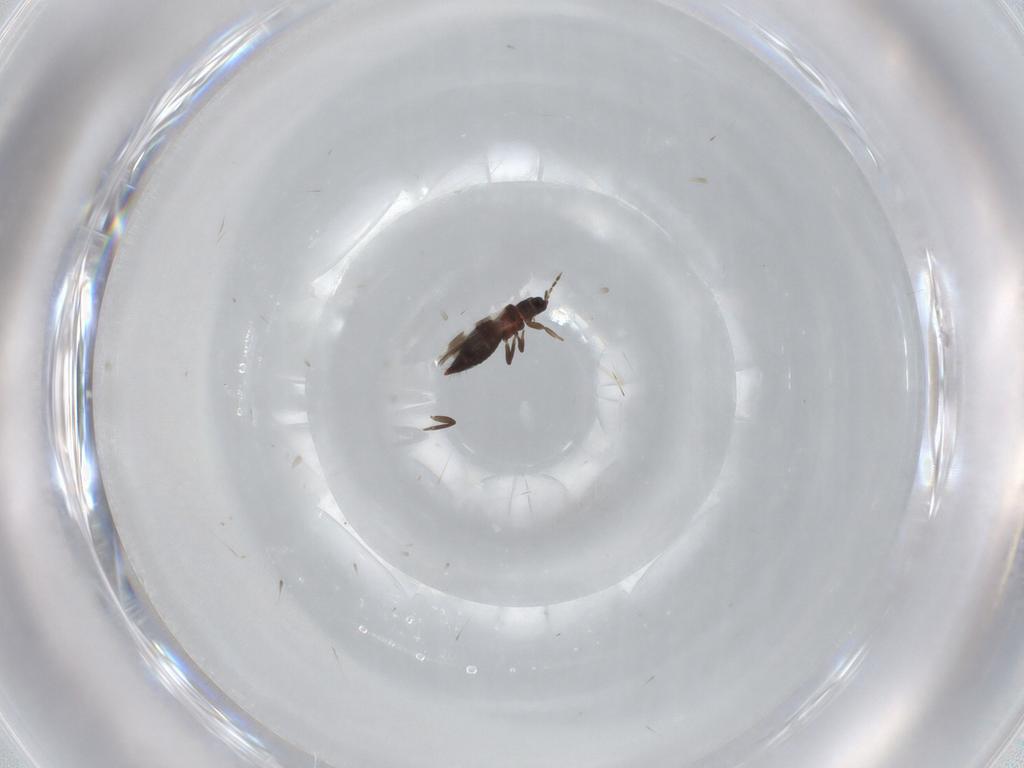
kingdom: Animalia
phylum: Arthropoda
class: Insecta
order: Thysanoptera
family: Aeolothripidae
